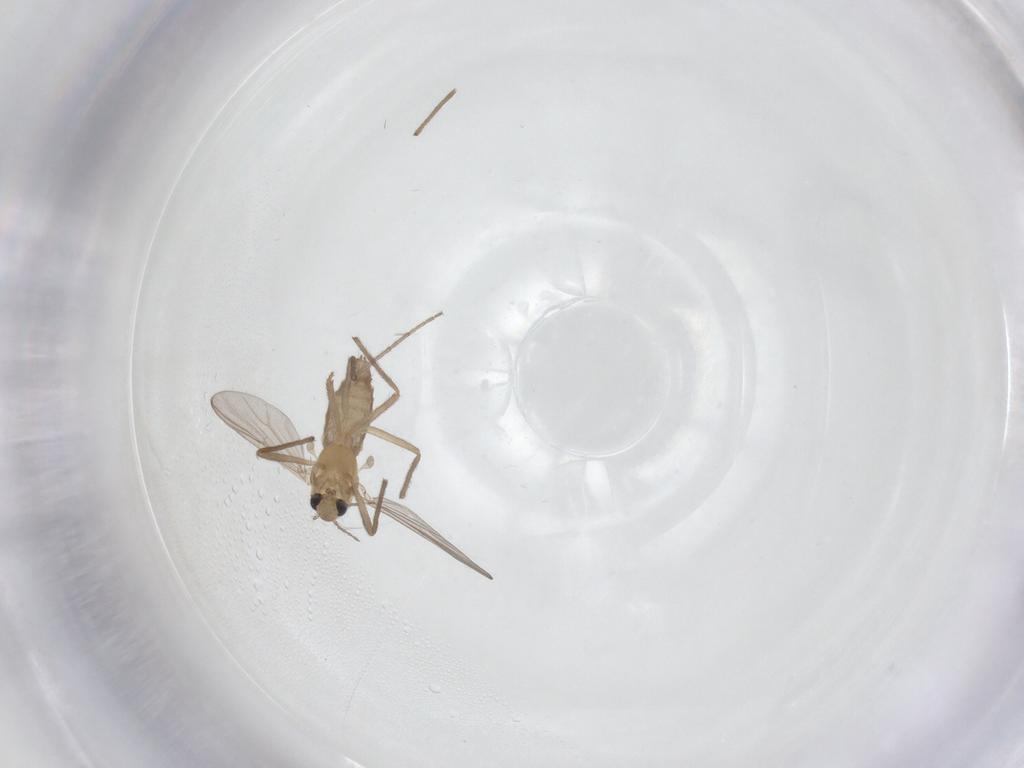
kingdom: Animalia
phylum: Arthropoda
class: Insecta
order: Diptera
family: Chironomidae
